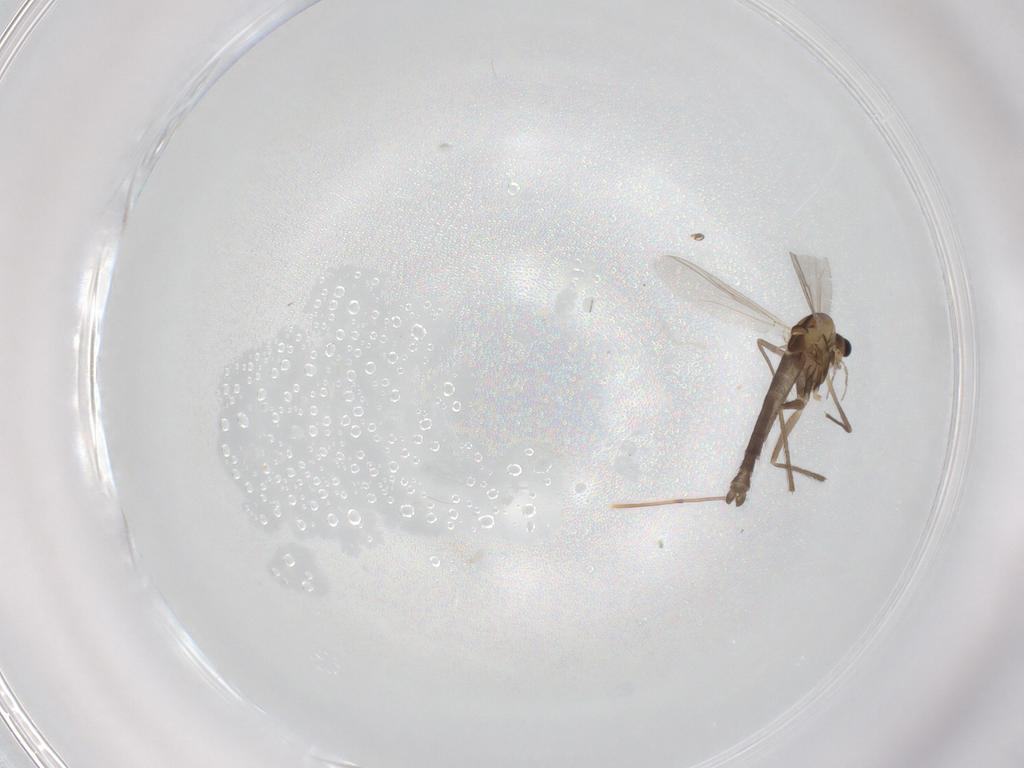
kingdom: Animalia
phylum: Arthropoda
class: Insecta
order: Diptera
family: Chironomidae
